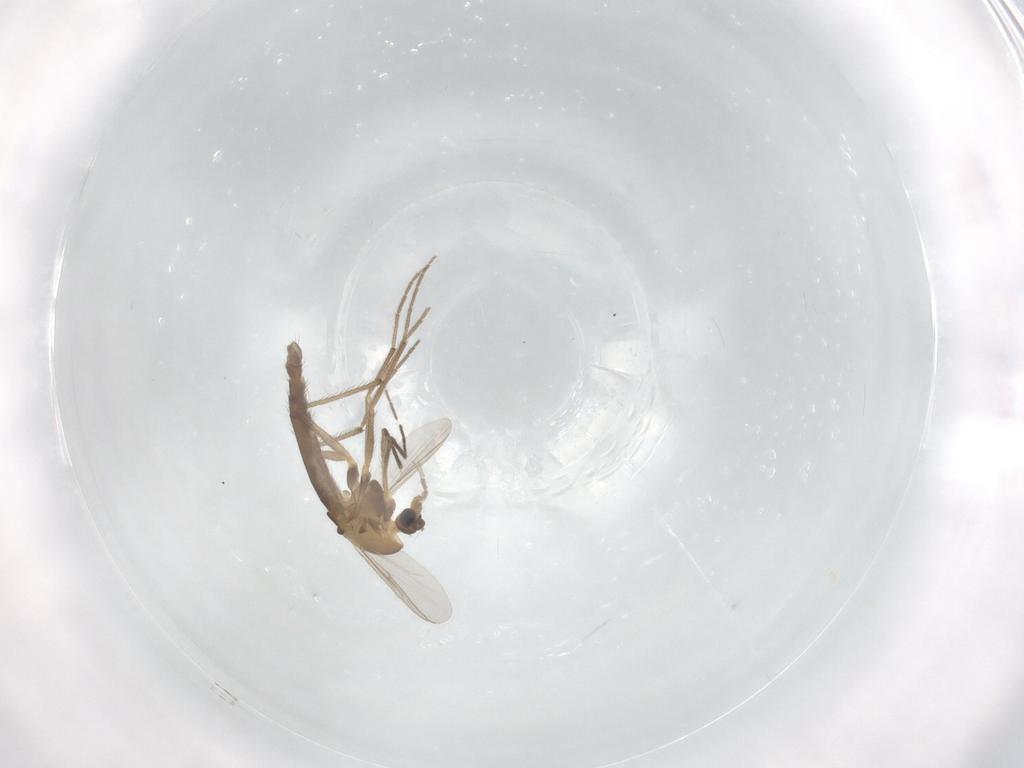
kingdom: Animalia
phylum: Arthropoda
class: Insecta
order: Diptera
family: Chironomidae
